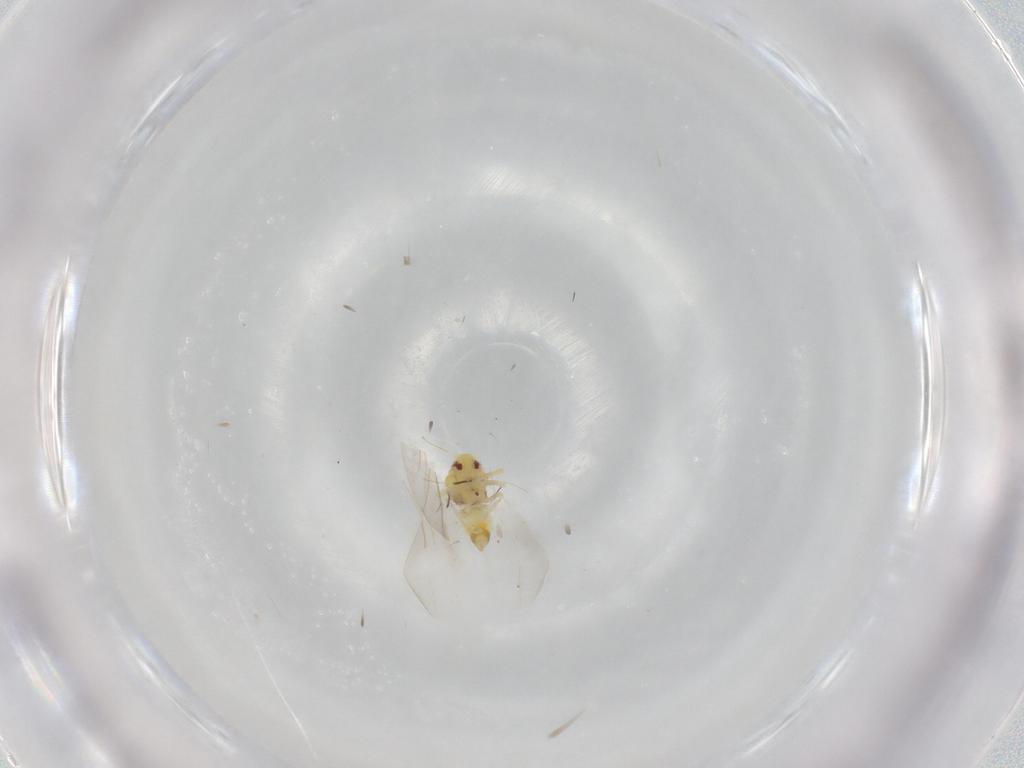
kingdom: Animalia
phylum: Arthropoda
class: Insecta
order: Hemiptera
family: Aleyrodidae
